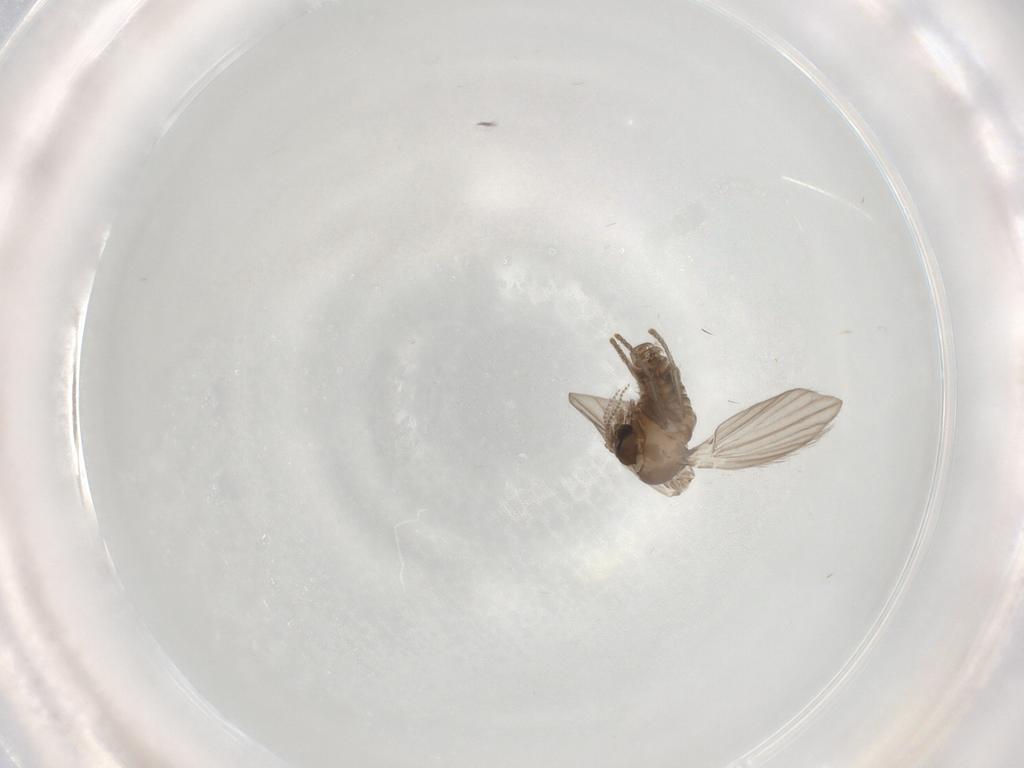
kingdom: Animalia
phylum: Arthropoda
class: Insecta
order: Diptera
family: Psychodidae
